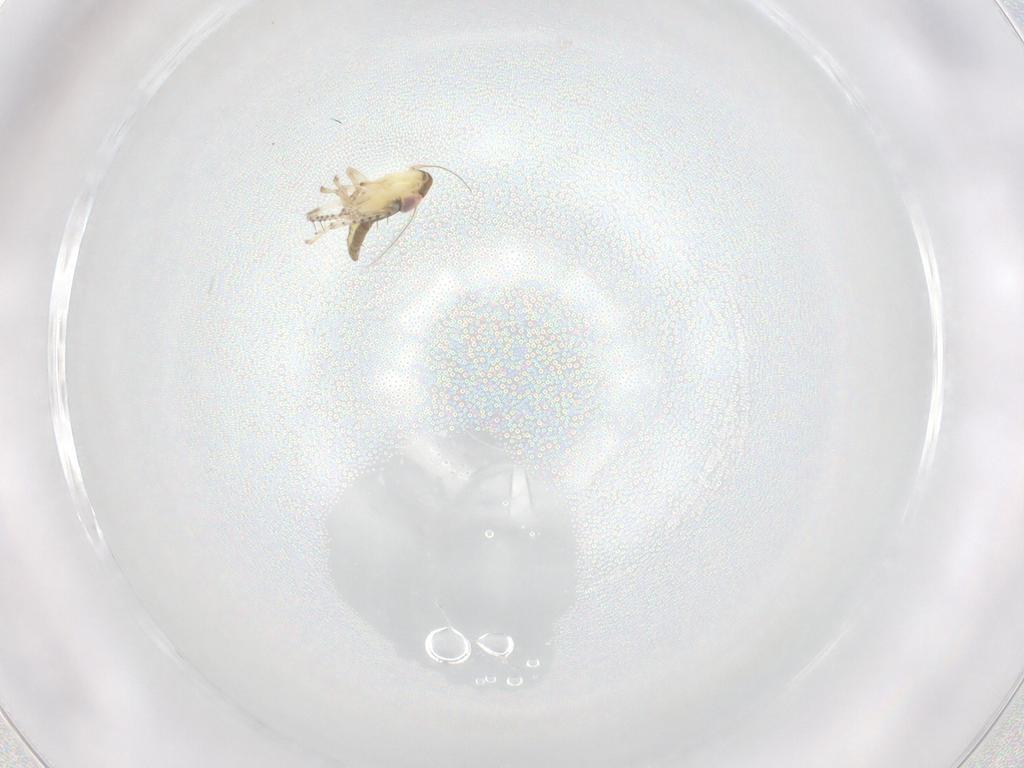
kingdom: Animalia
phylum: Arthropoda
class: Insecta
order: Hemiptera
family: Cicadellidae
